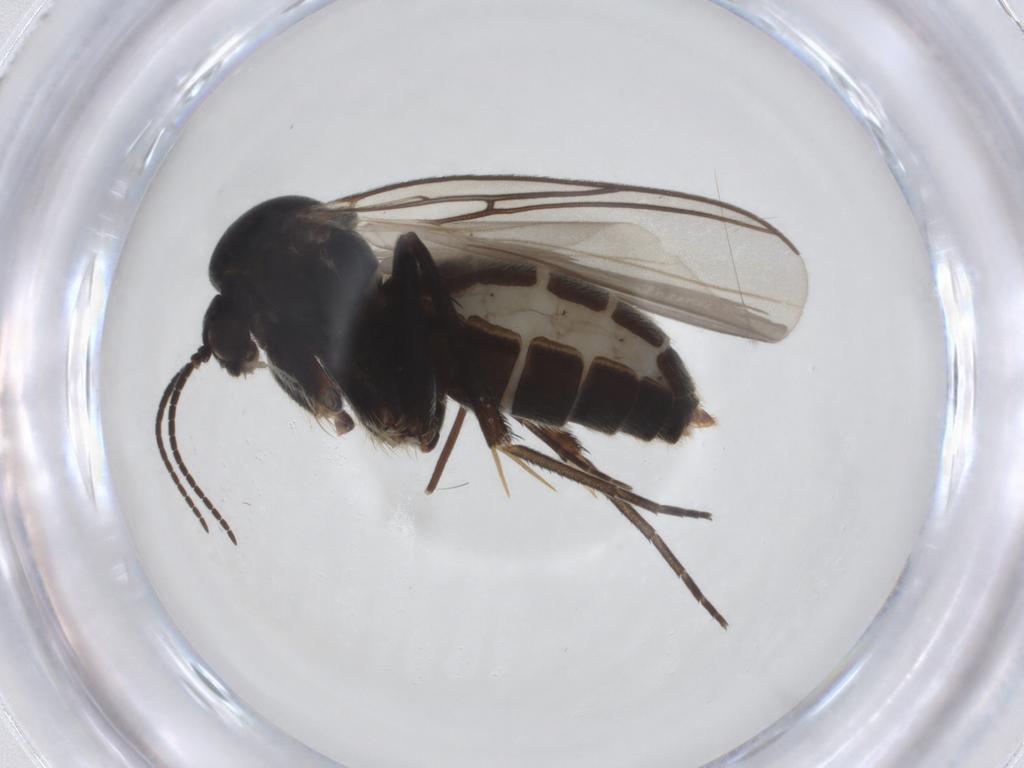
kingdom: Animalia
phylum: Arthropoda
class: Insecta
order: Diptera
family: Mycetophilidae
